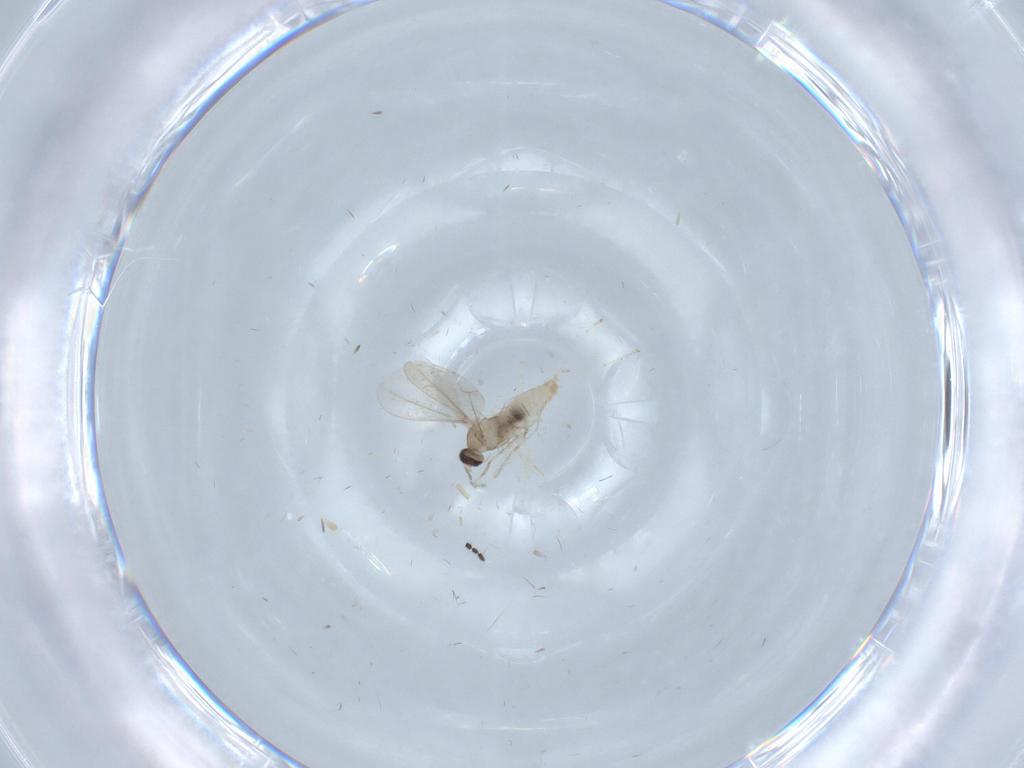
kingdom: Animalia
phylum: Arthropoda
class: Insecta
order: Diptera
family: Cecidomyiidae
